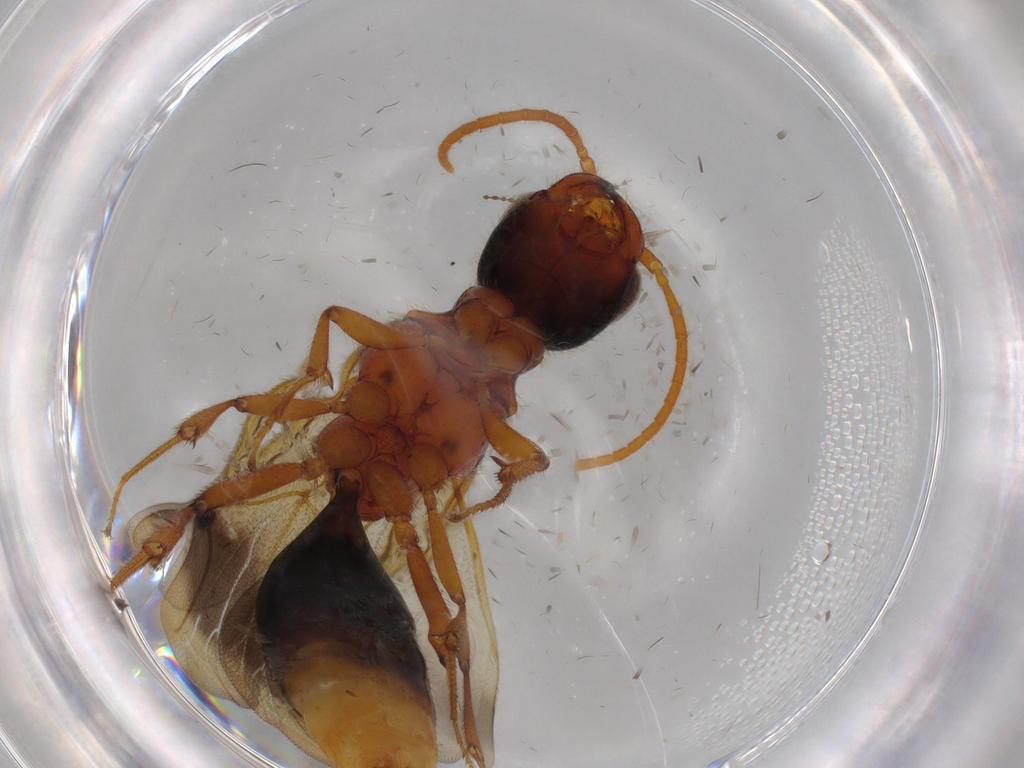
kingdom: Animalia
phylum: Arthropoda
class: Insecta
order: Hymenoptera
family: Bethylidae
